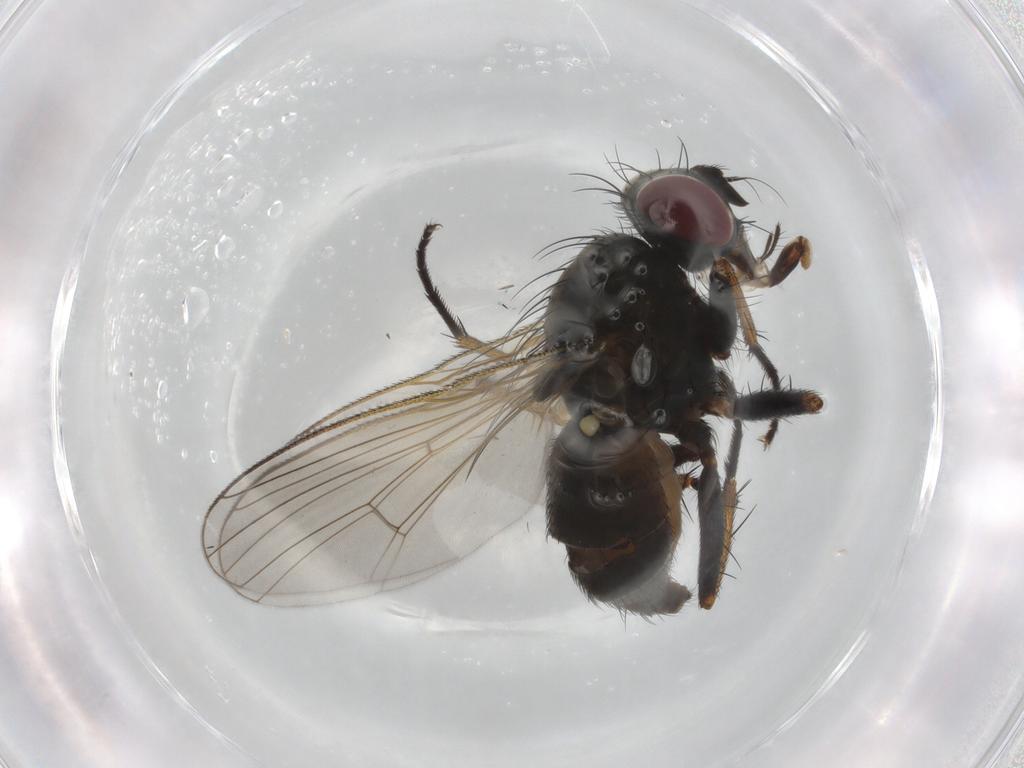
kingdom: Animalia
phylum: Arthropoda
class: Insecta
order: Diptera
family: Muscidae
